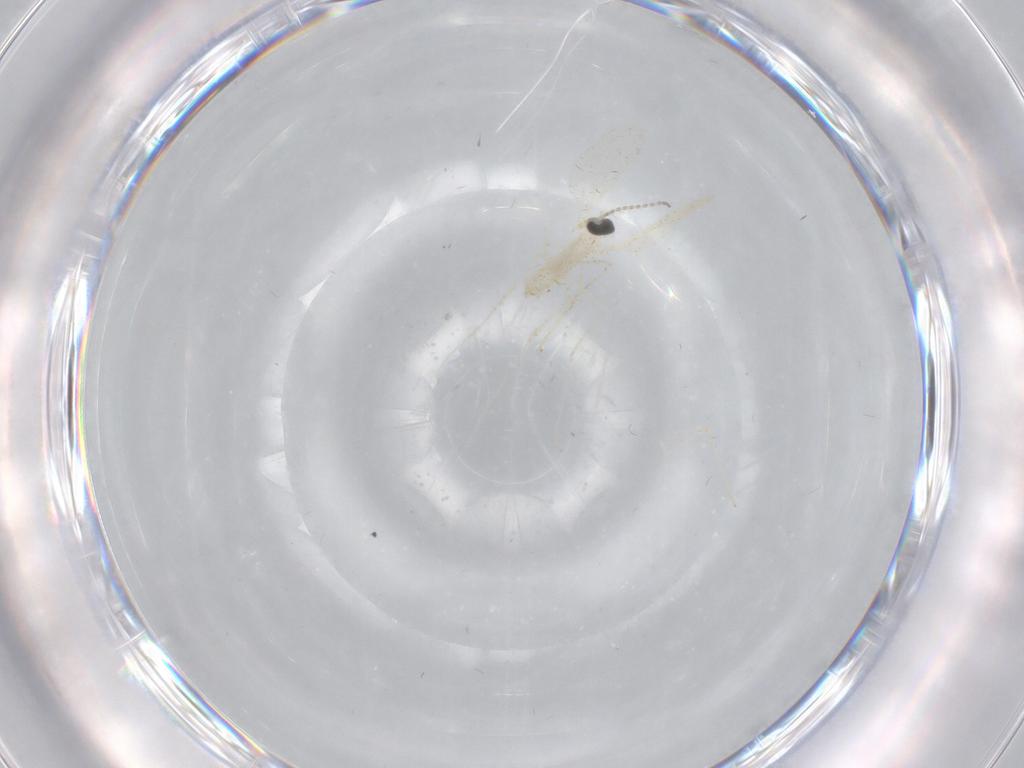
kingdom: Animalia
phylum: Arthropoda
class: Insecta
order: Diptera
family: Cecidomyiidae
